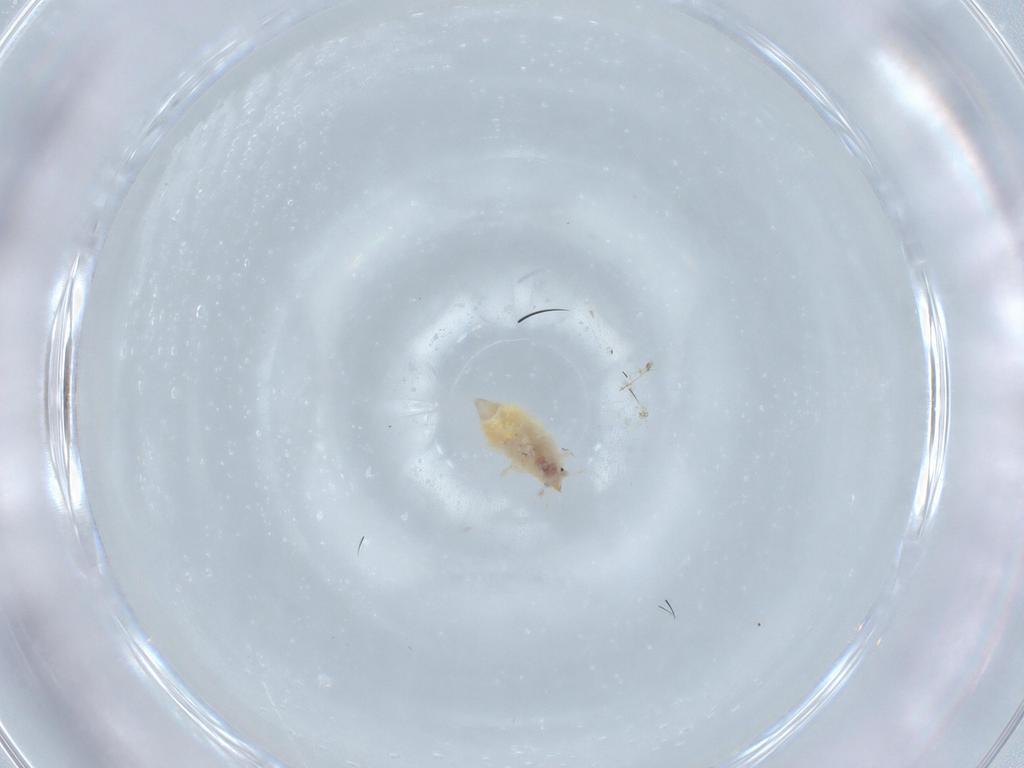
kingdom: Animalia
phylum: Arthropoda
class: Insecta
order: Neuroptera
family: Coniopterygidae
